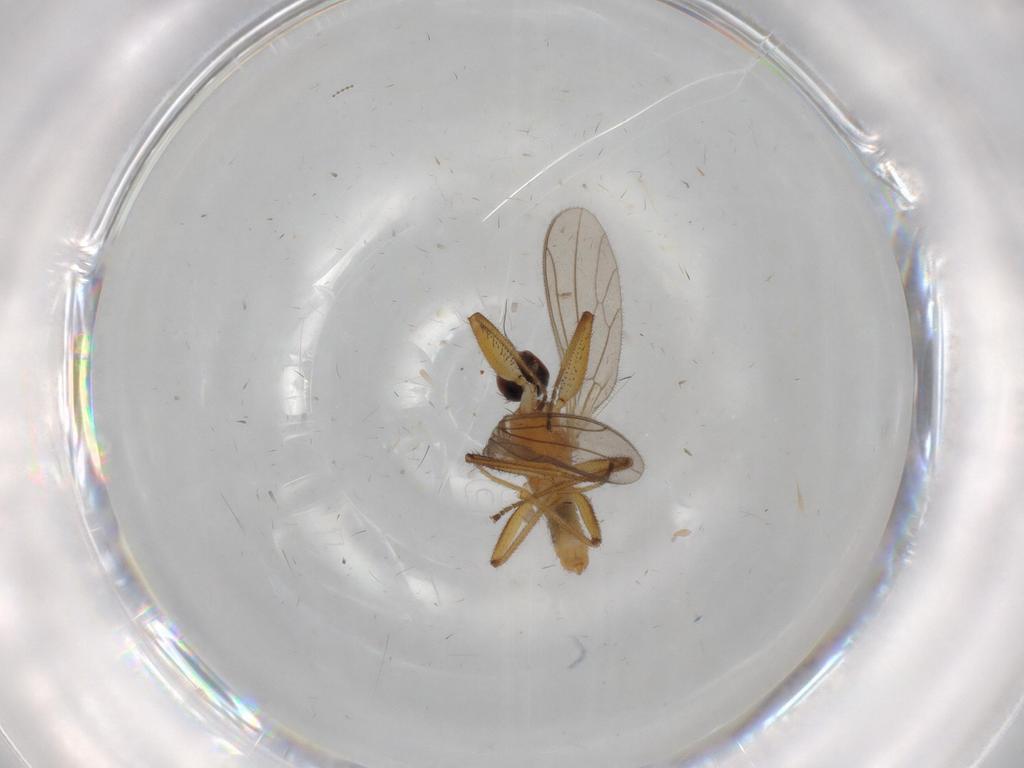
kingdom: Animalia
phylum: Arthropoda
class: Insecta
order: Diptera
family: Empididae
